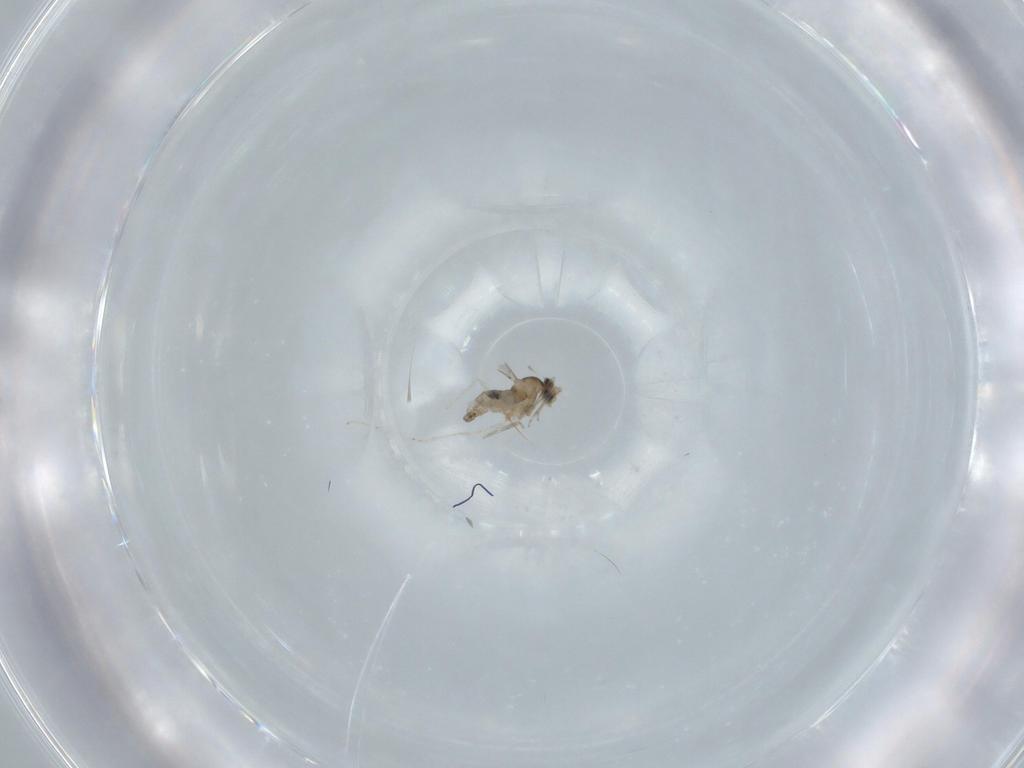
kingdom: Animalia
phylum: Arthropoda
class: Insecta
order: Diptera
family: Cecidomyiidae
